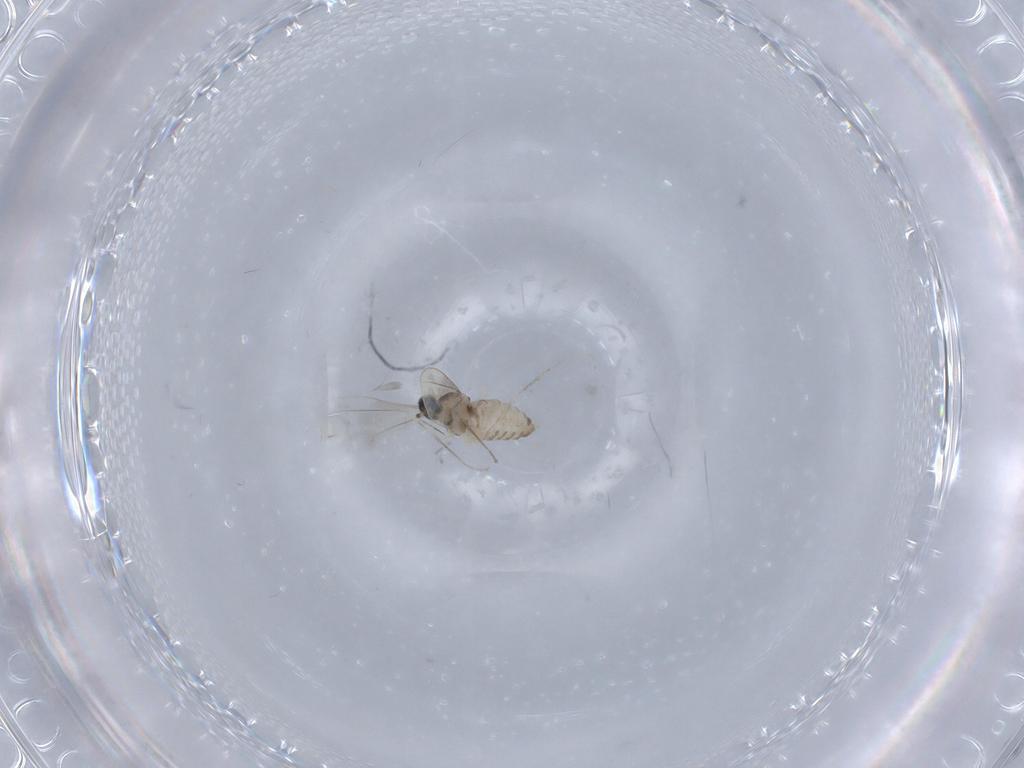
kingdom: Animalia
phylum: Arthropoda
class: Insecta
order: Diptera
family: Cecidomyiidae
